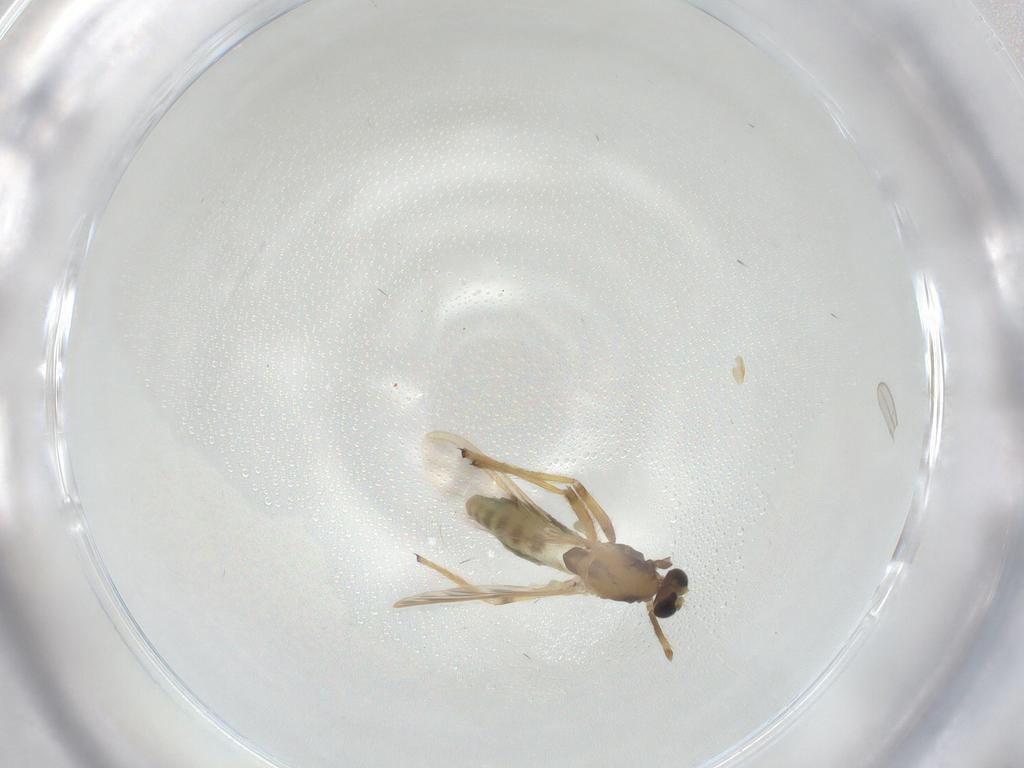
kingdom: Animalia
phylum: Arthropoda
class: Insecta
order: Diptera
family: Chironomidae
